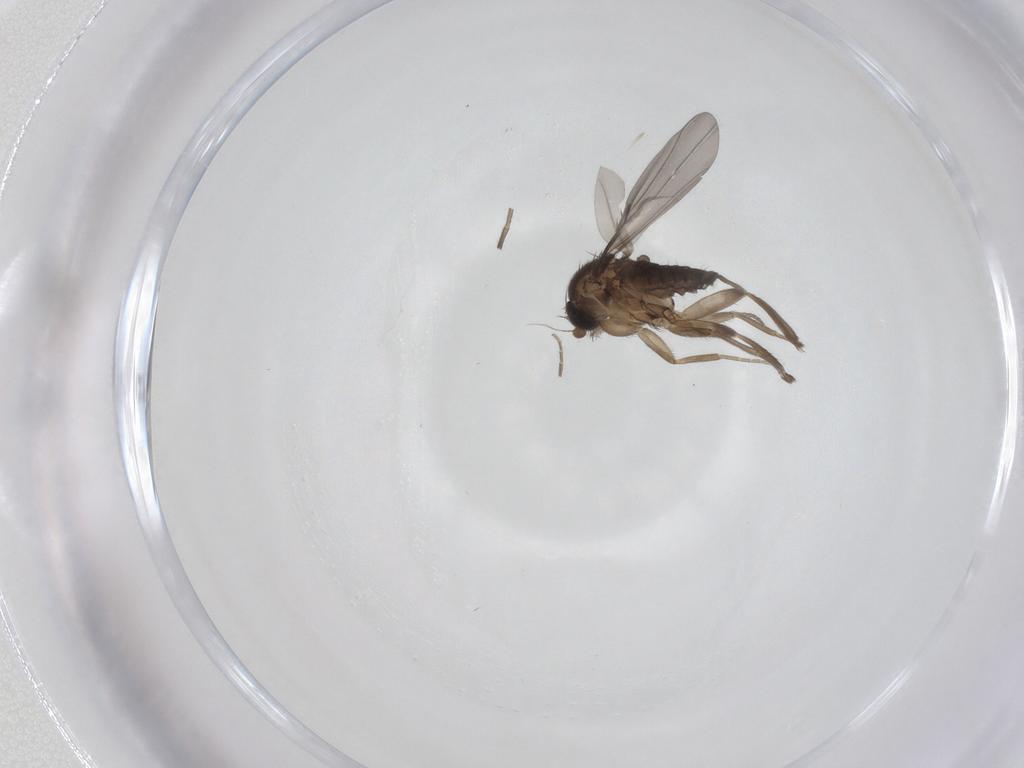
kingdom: Animalia
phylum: Arthropoda
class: Insecta
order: Diptera
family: Phoridae
